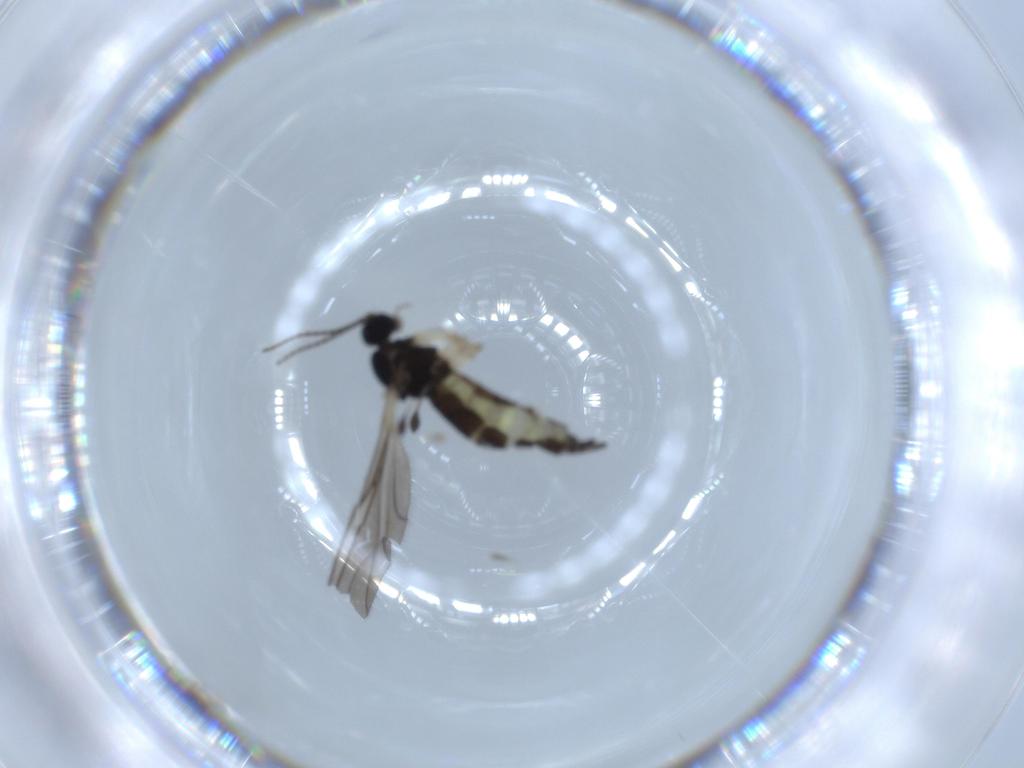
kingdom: Animalia
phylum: Arthropoda
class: Insecta
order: Diptera
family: Sciaridae
